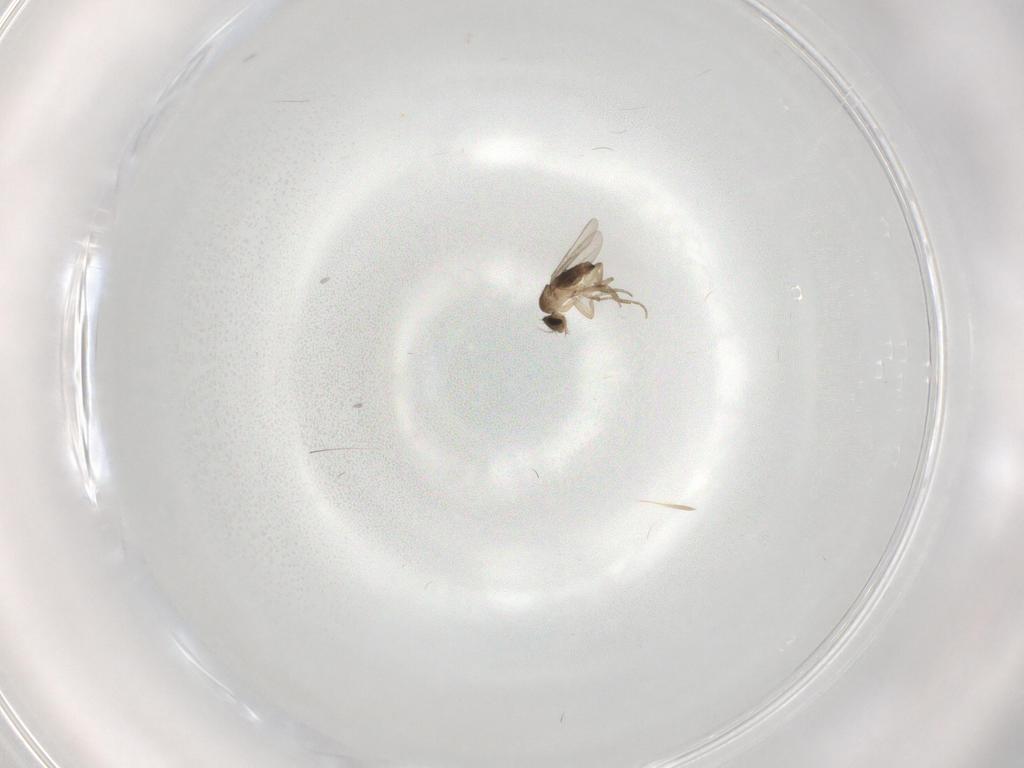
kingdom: Animalia
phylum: Arthropoda
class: Insecta
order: Diptera
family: Phoridae
